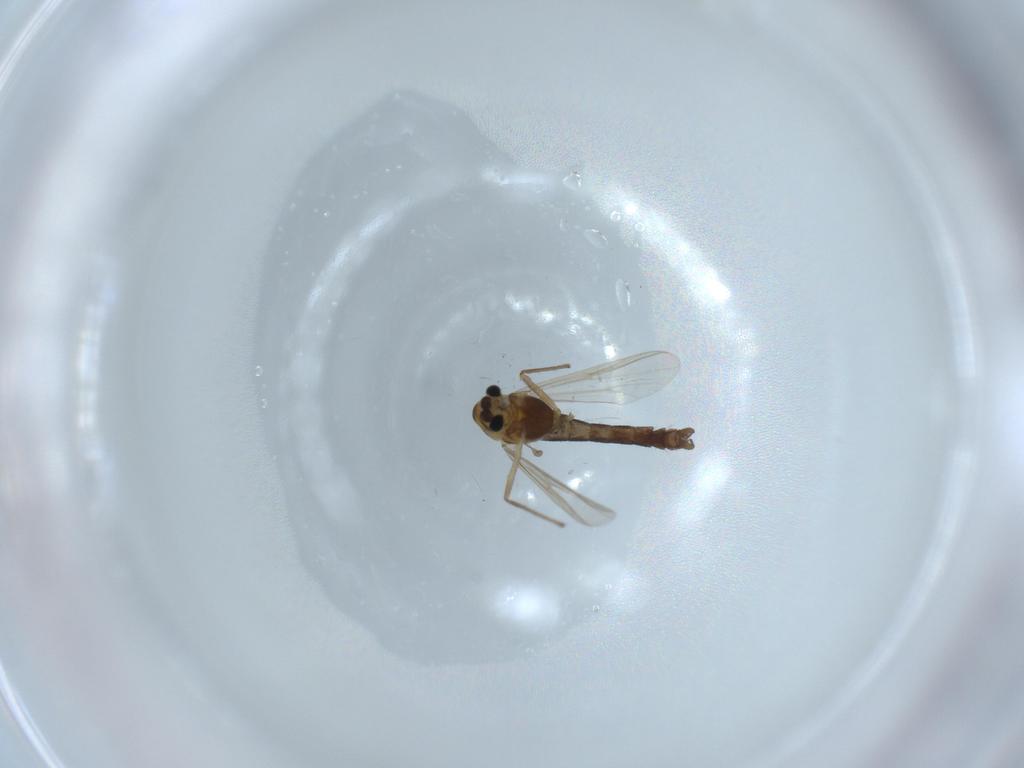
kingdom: Animalia
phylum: Arthropoda
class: Insecta
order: Diptera
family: Chironomidae
